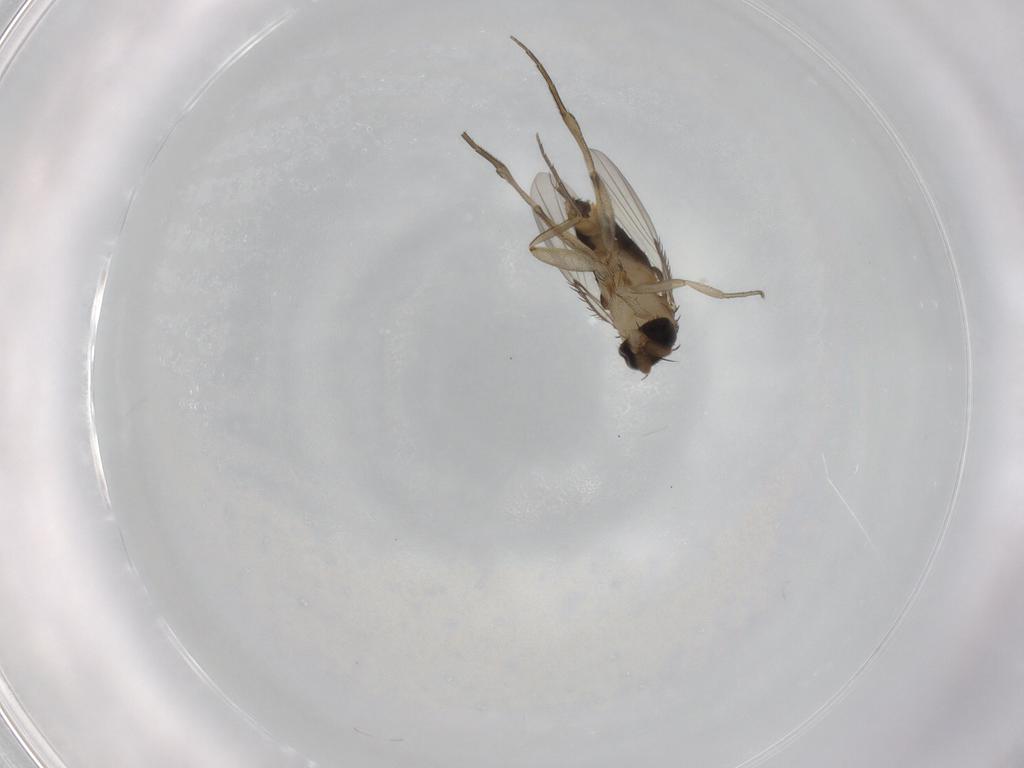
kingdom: Animalia
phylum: Arthropoda
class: Insecta
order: Diptera
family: Phoridae
